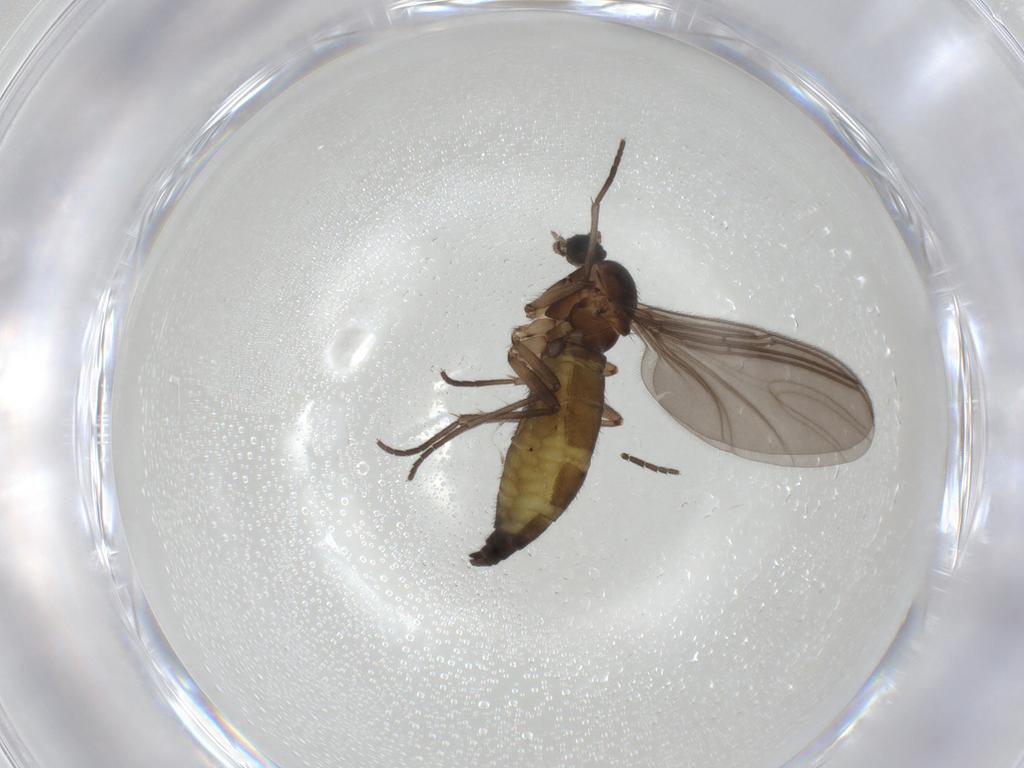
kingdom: Animalia
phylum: Arthropoda
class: Insecta
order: Diptera
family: Sciaridae
